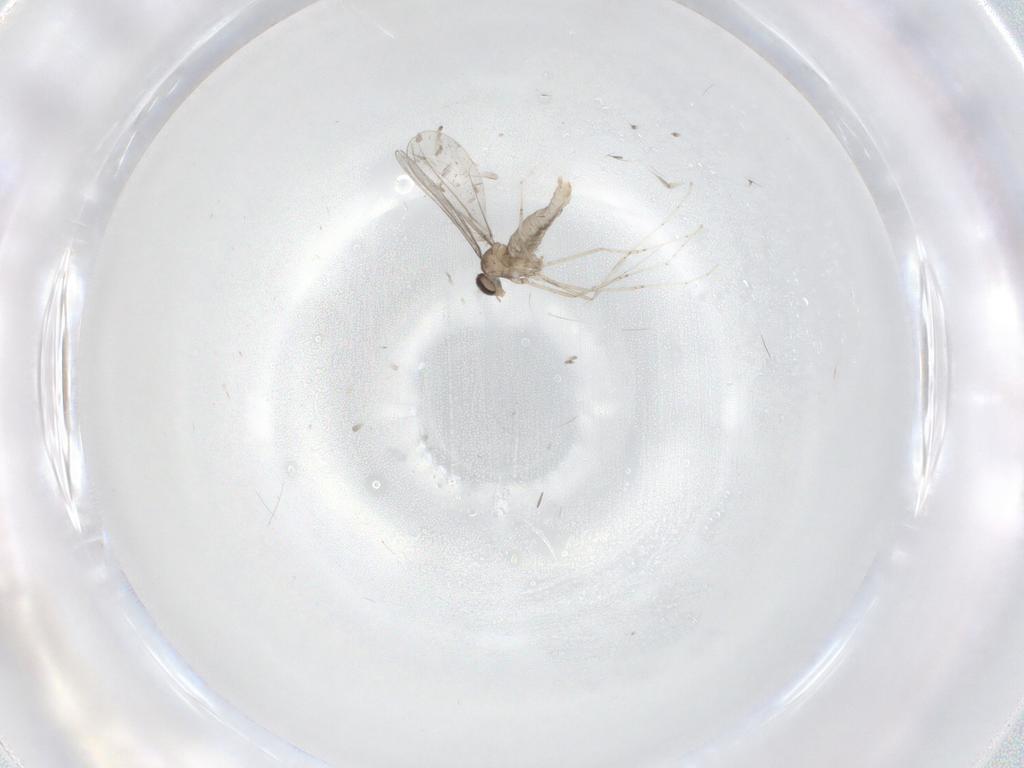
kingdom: Animalia
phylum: Arthropoda
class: Insecta
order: Diptera
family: Cecidomyiidae
